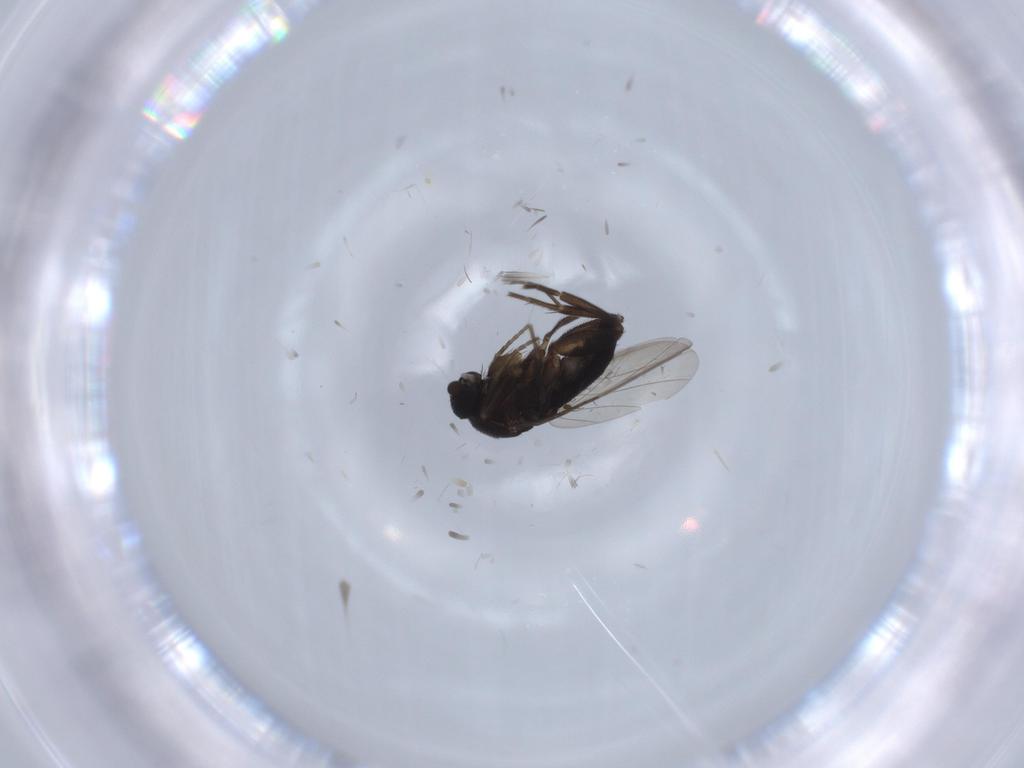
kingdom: Animalia
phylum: Arthropoda
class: Insecta
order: Diptera
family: Phoridae
